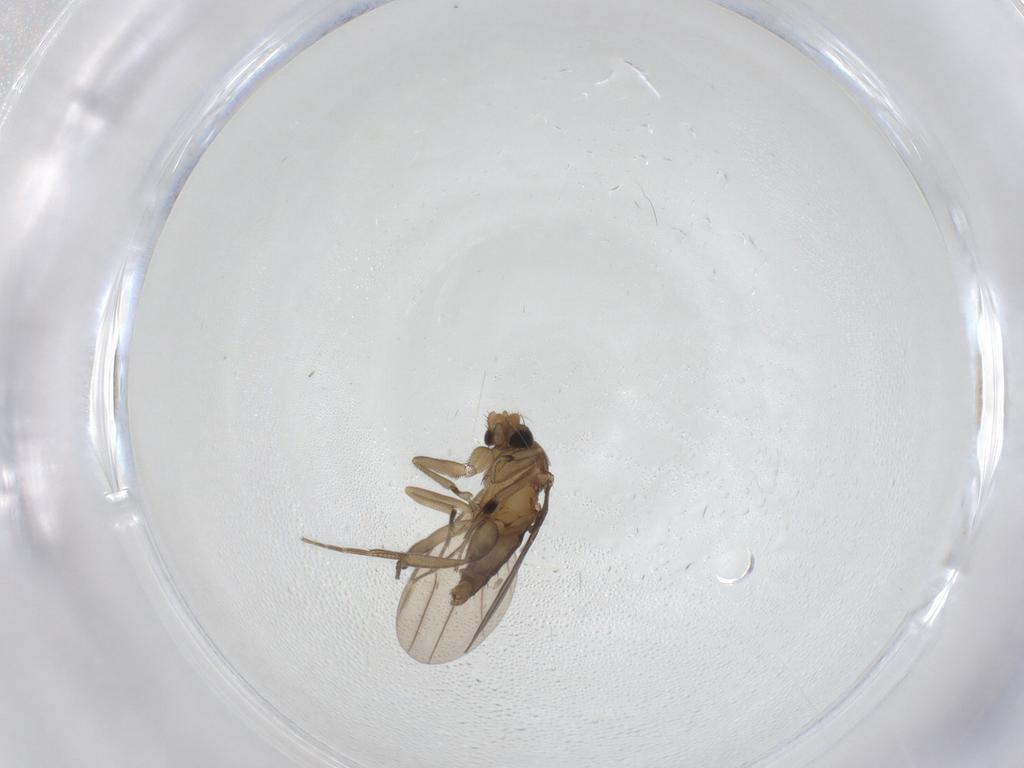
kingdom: Animalia
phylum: Arthropoda
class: Insecta
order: Diptera
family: Phoridae
